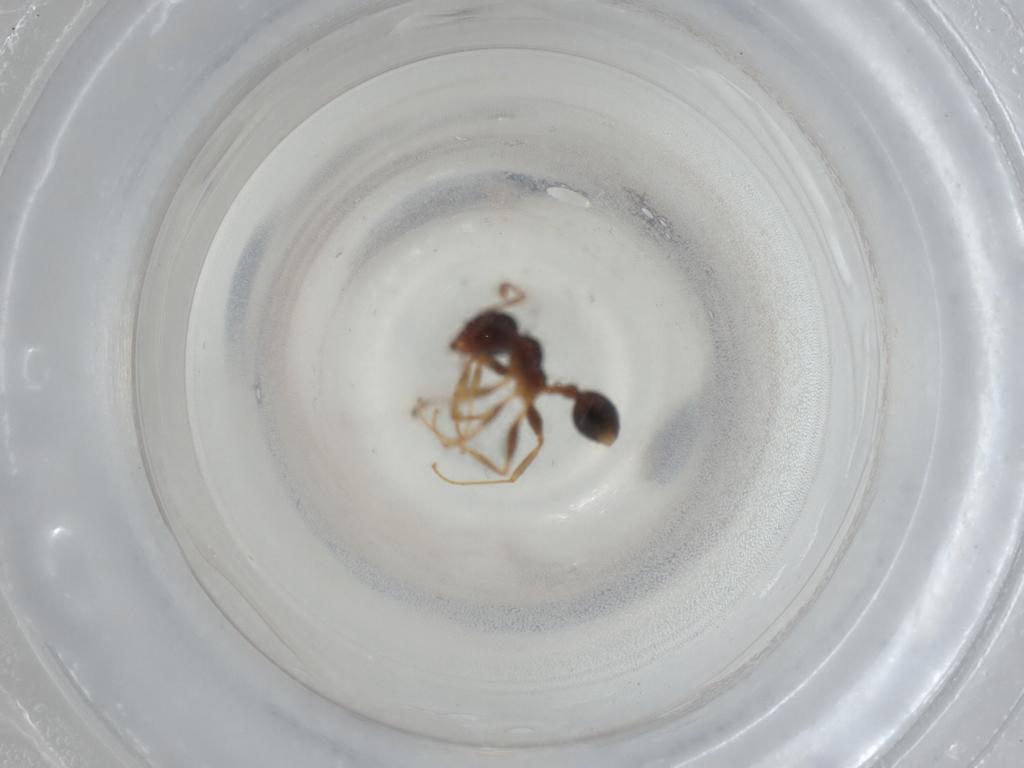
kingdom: Animalia
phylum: Arthropoda
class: Insecta
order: Hymenoptera
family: Formicidae
